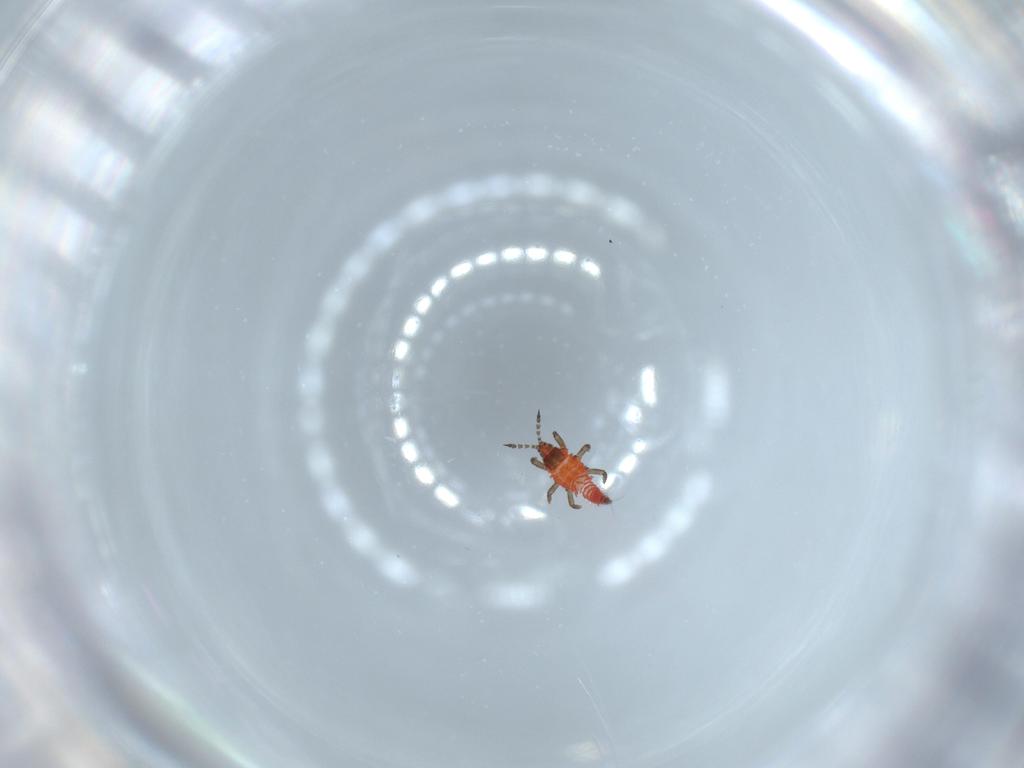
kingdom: Animalia
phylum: Arthropoda
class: Insecta
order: Thysanoptera
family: Phlaeothripidae
